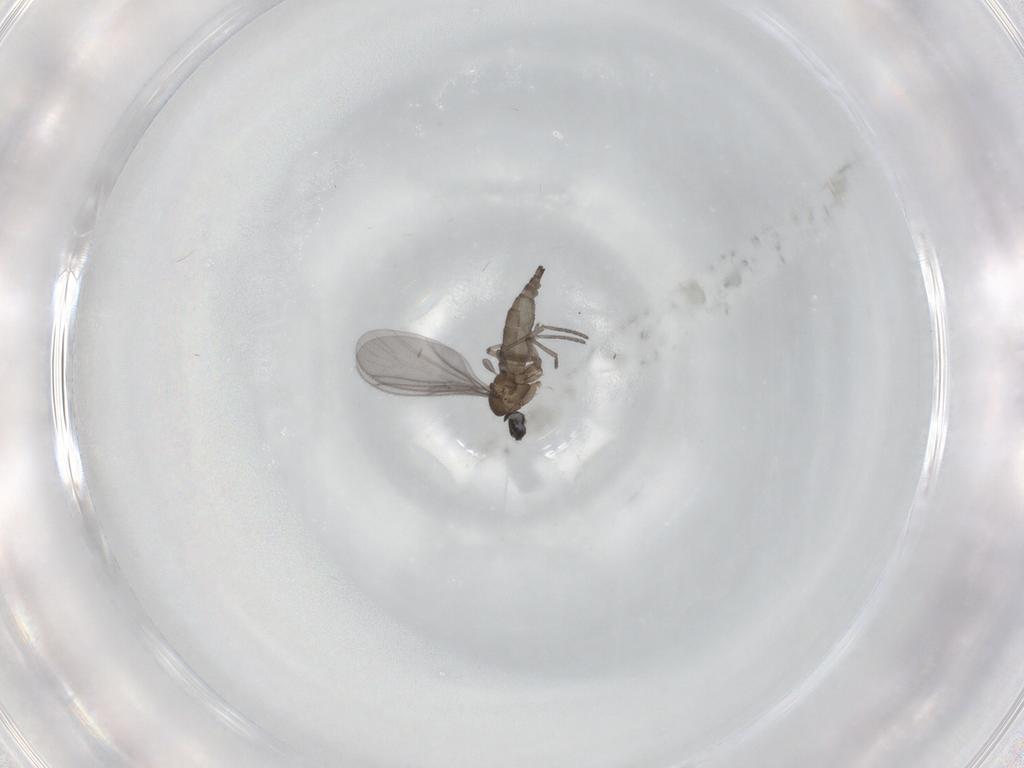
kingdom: Animalia
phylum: Arthropoda
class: Insecta
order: Diptera
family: Sciaridae
